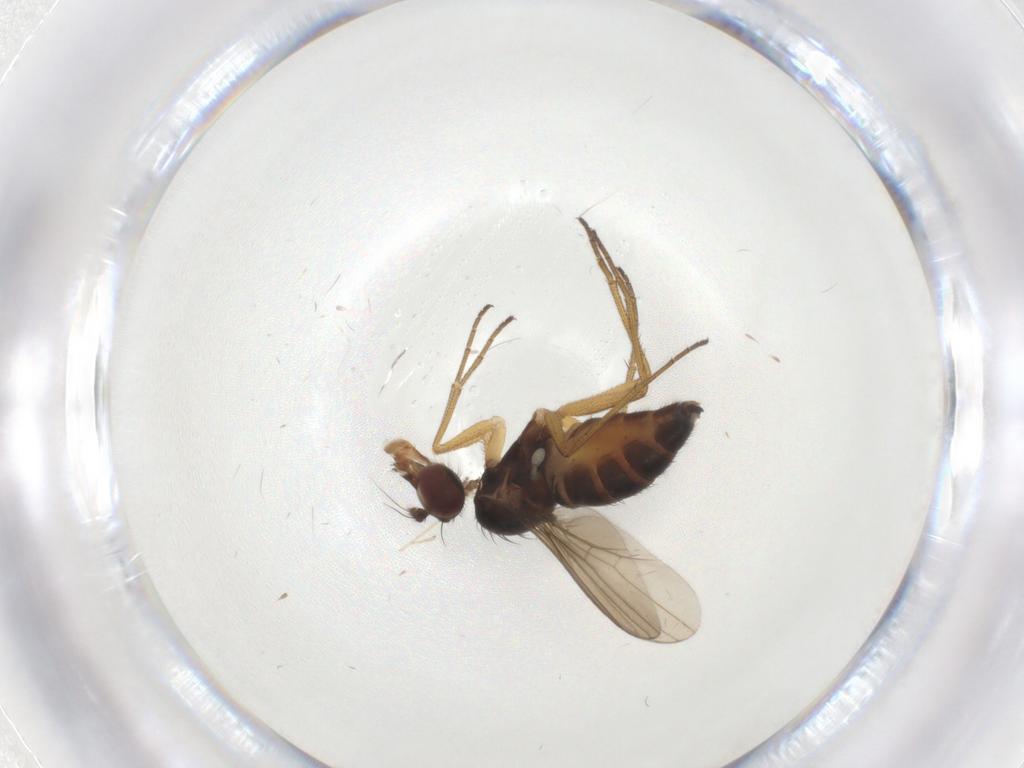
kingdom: Animalia
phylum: Arthropoda
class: Insecta
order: Diptera
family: Dolichopodidae
